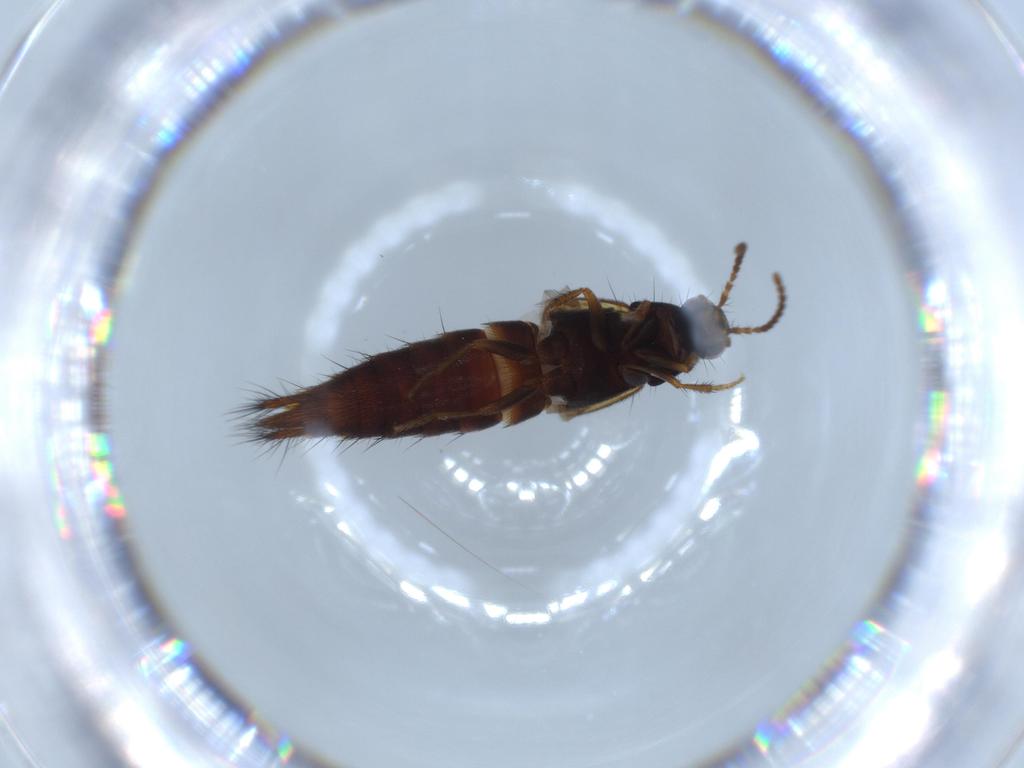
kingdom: Animalia
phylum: Arthropoda
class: Insecta
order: Coleoptera
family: Staphylinidae
